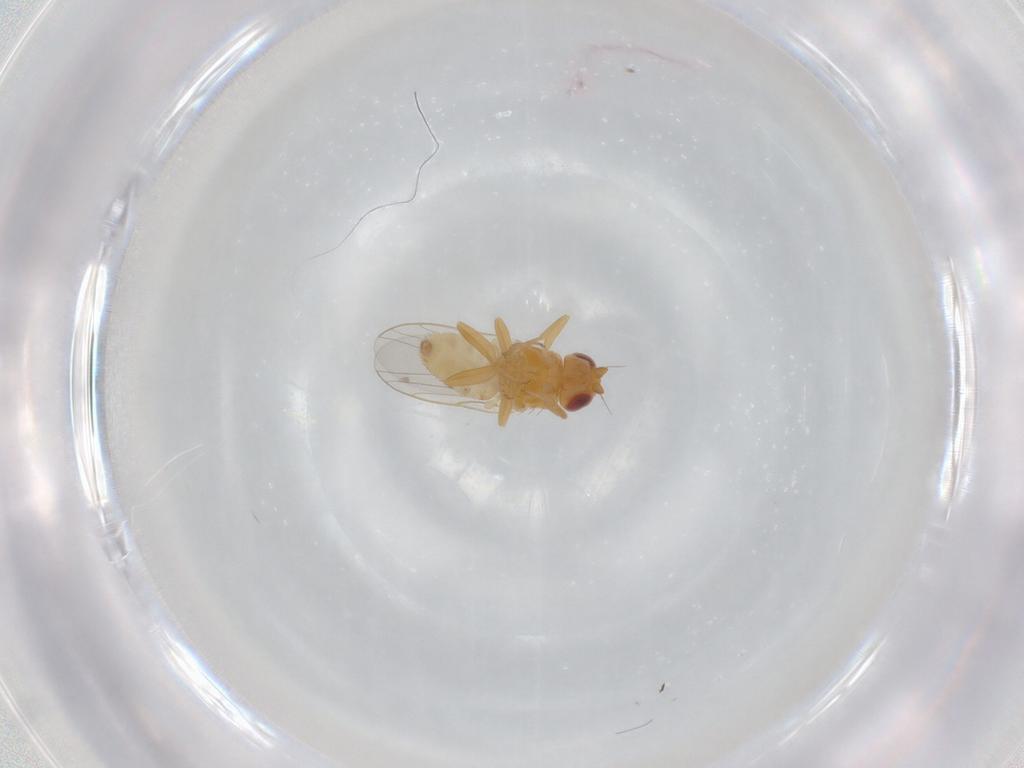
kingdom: Animalia
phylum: Arthropoda
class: Insecta
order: Diptera
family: Chloropidae
